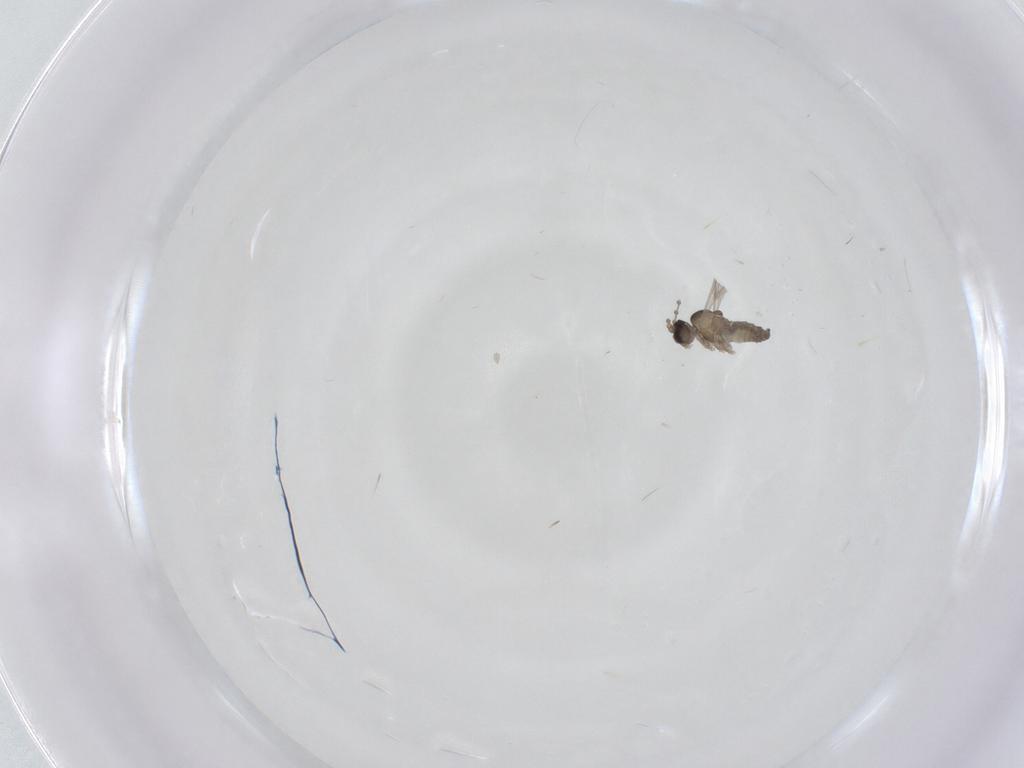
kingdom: Animalia
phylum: Arthropoda
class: Insecta
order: Diptera
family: Cecidomyiidae
